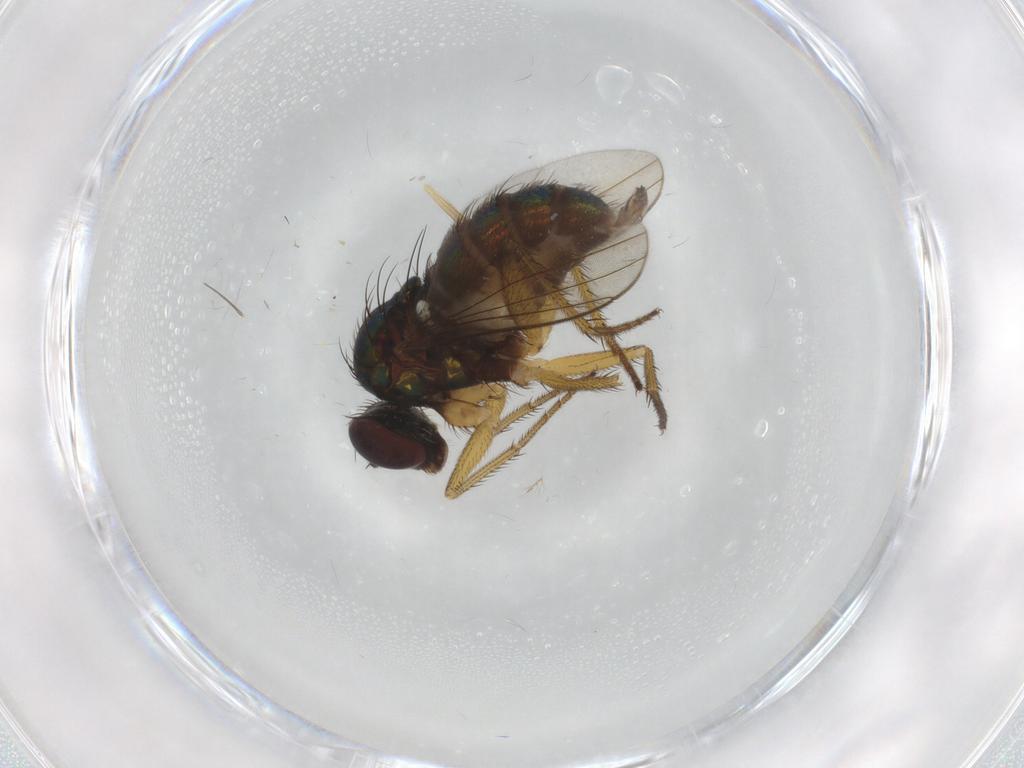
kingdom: Animalia
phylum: Arthropoda
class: Insecta
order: Diptera
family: Dolichopodidae
